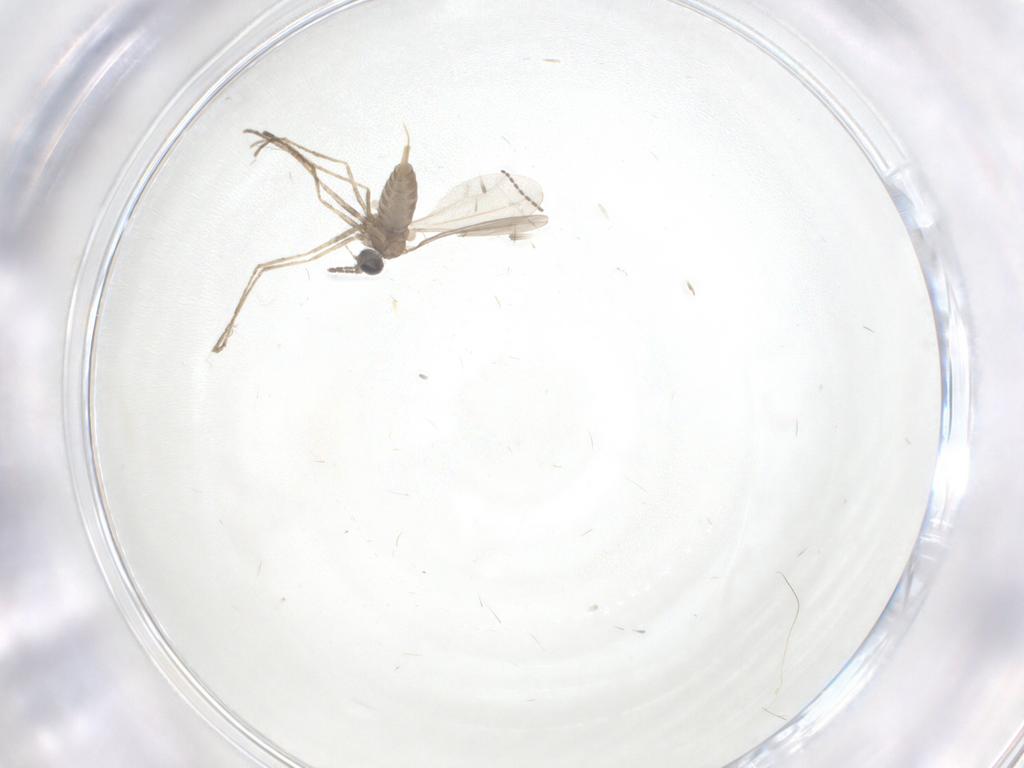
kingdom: Animalia
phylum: Arthropoda
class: Insecta
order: Diptera
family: Cecidomyiidae
